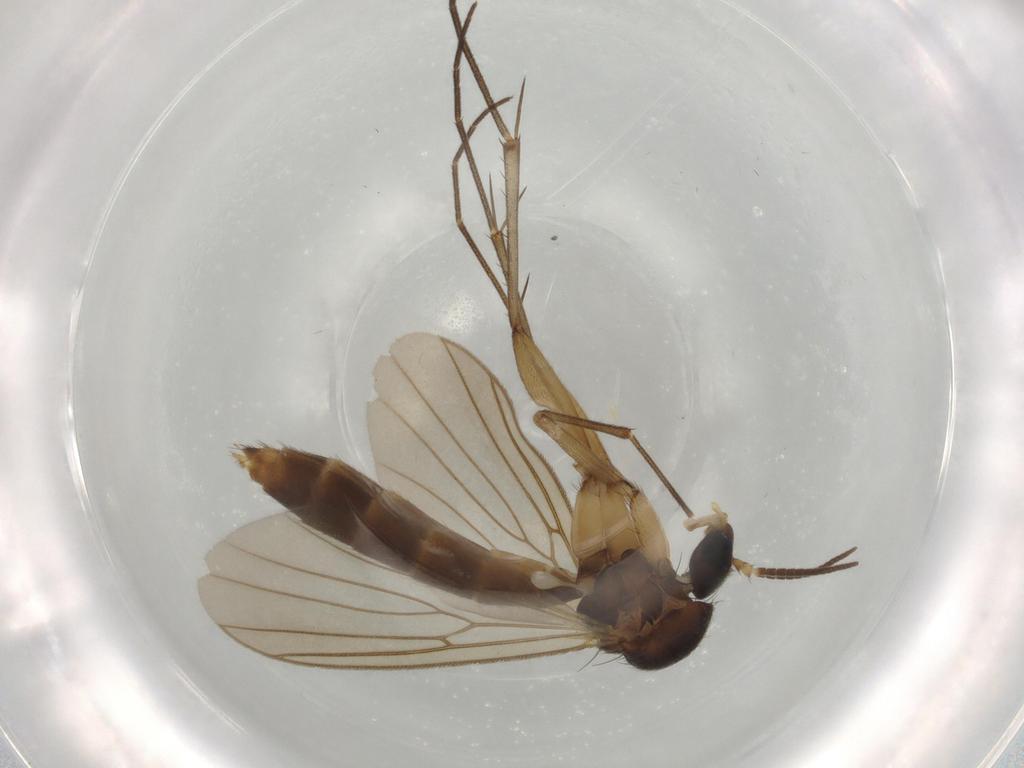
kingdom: Animalia
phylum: Arthropoda
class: Insecta
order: Diptera
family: Mycetophilidae
